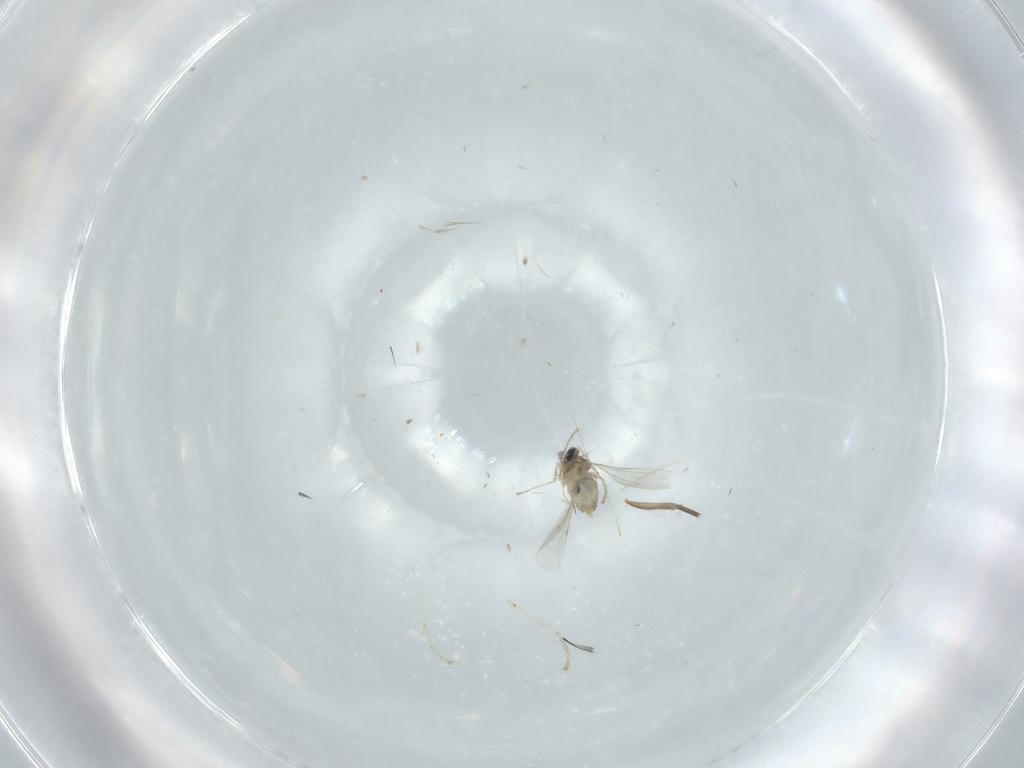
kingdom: Animalia
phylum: Arthropoda
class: Insecta
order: Diptera
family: Cecidomyiidae
